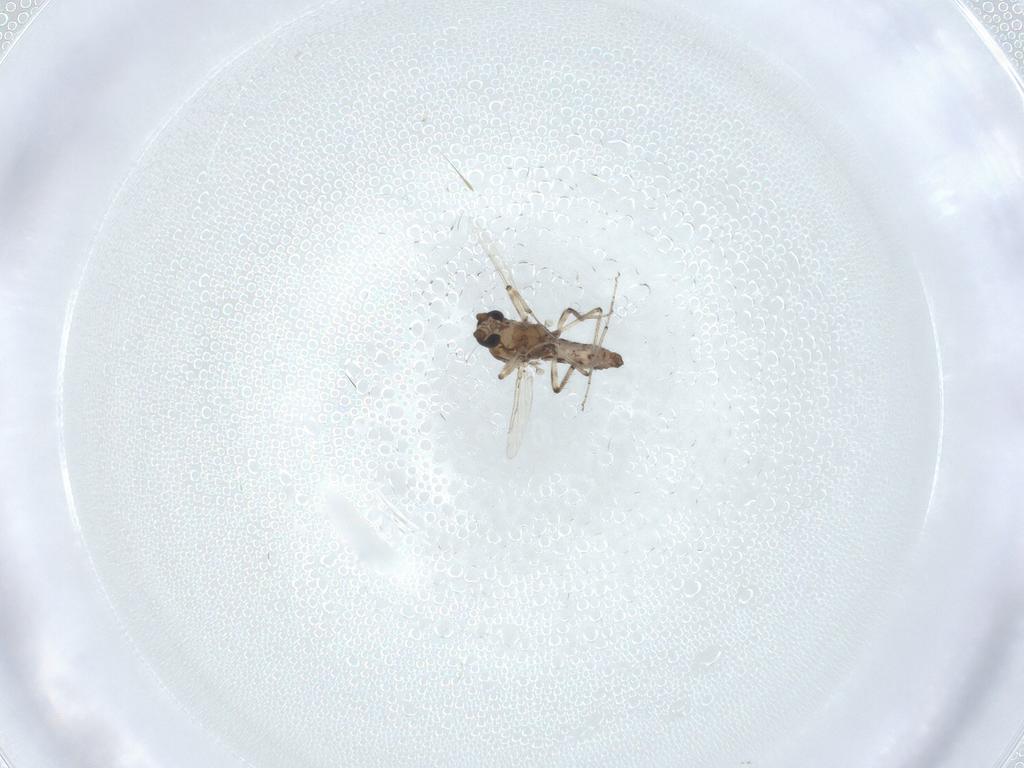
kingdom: Animalia
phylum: Arthropoda
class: Insecta
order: Diptera
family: Ceratopogonidae
